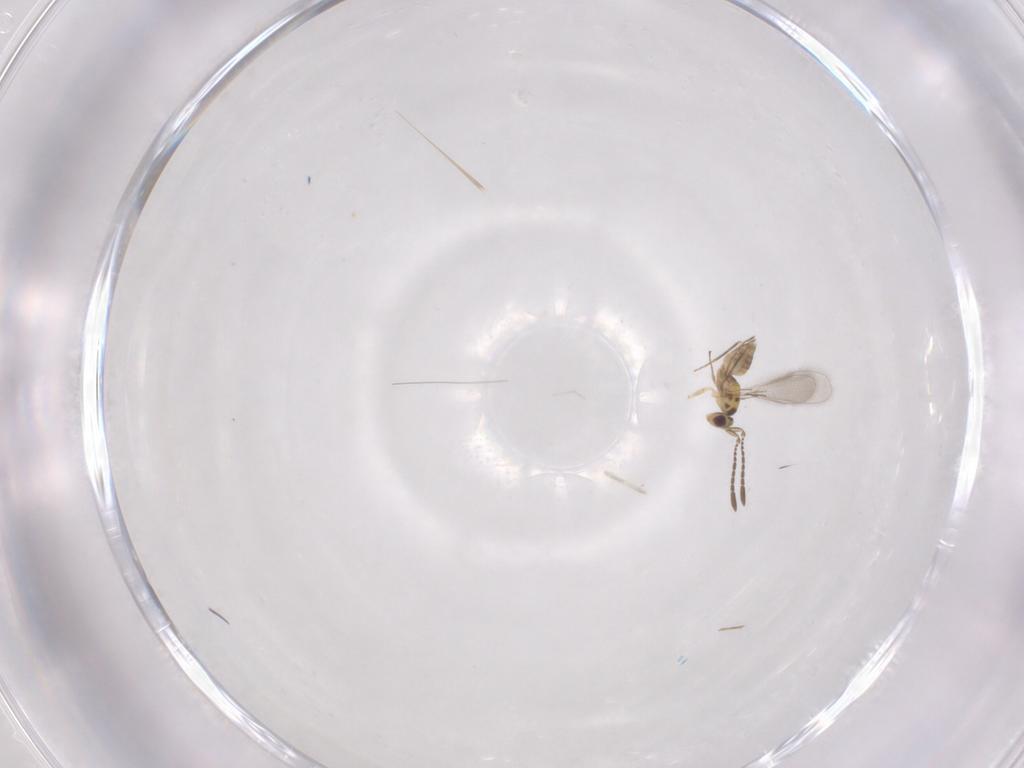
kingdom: Animalia
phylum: Arthropoda
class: Insecta
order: Hymenoptera
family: Mymaridae
